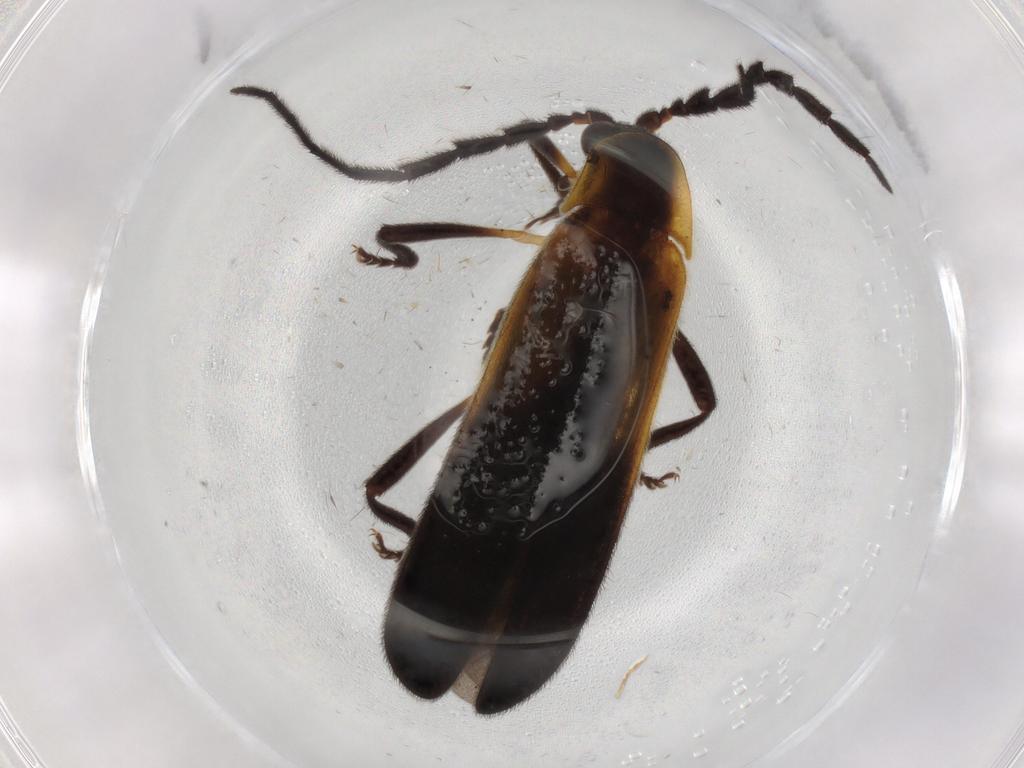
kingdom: Animalia
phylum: Arthropoda
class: Insecta
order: Coleoptera
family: Lycidae
